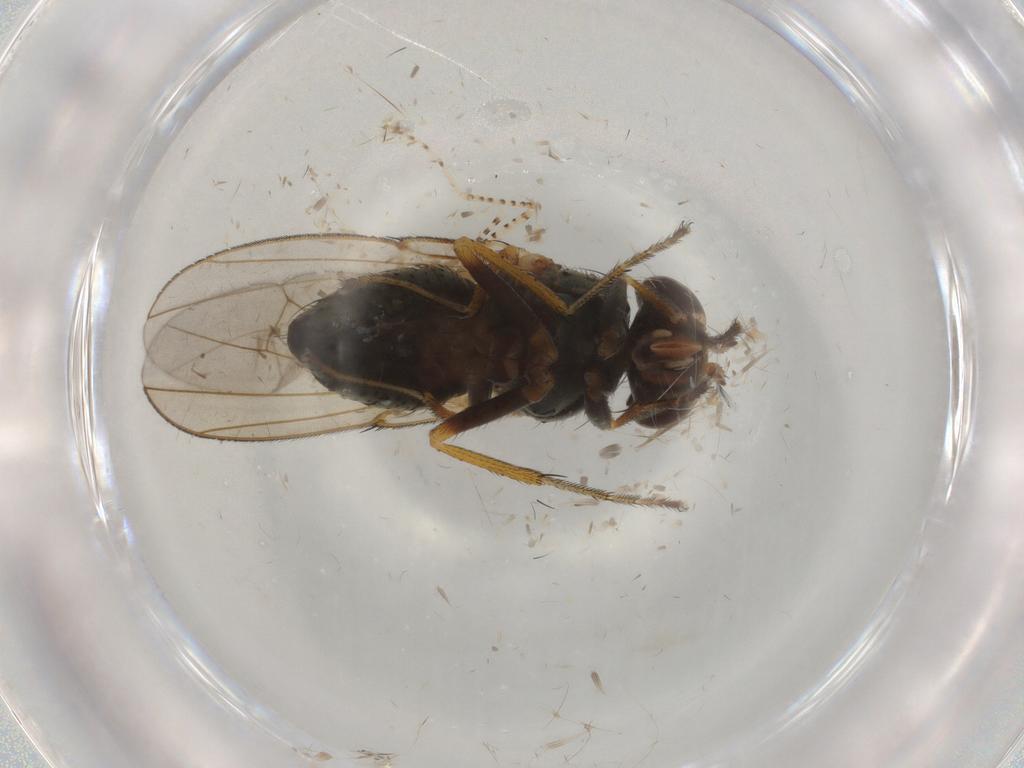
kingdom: Animalia
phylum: Arthropoda
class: Insecta
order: Diptera
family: Ephydridae
